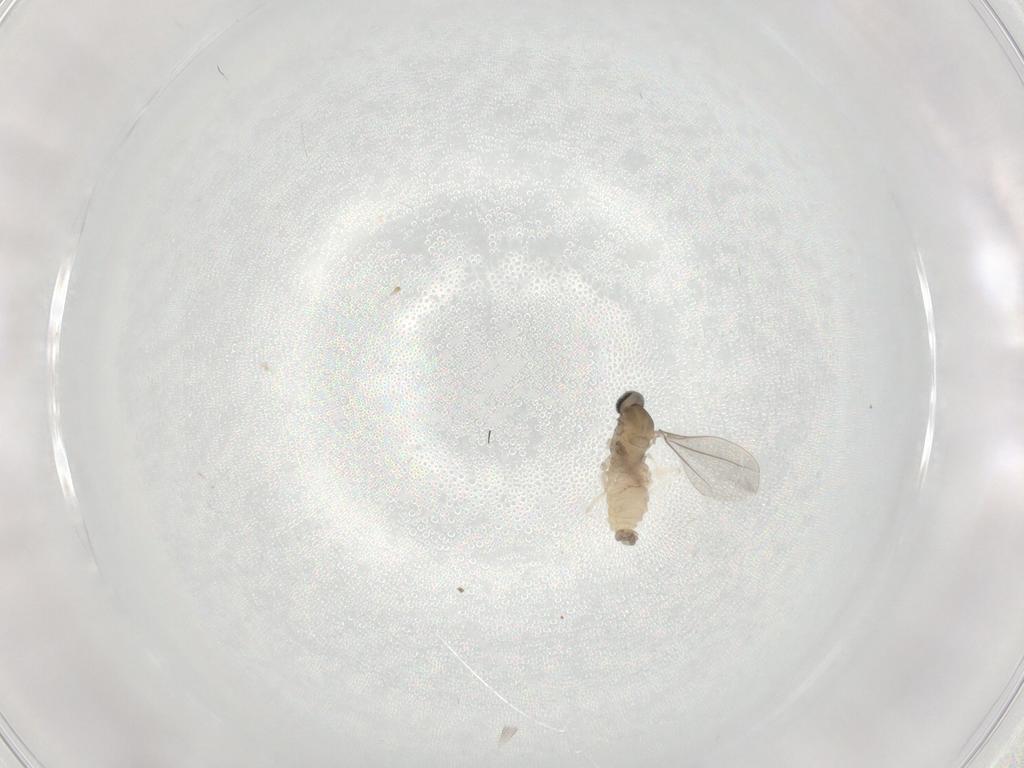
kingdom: Animalia
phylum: Arthropoda
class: Insecta
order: Diptera
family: Cecidomyiidae
